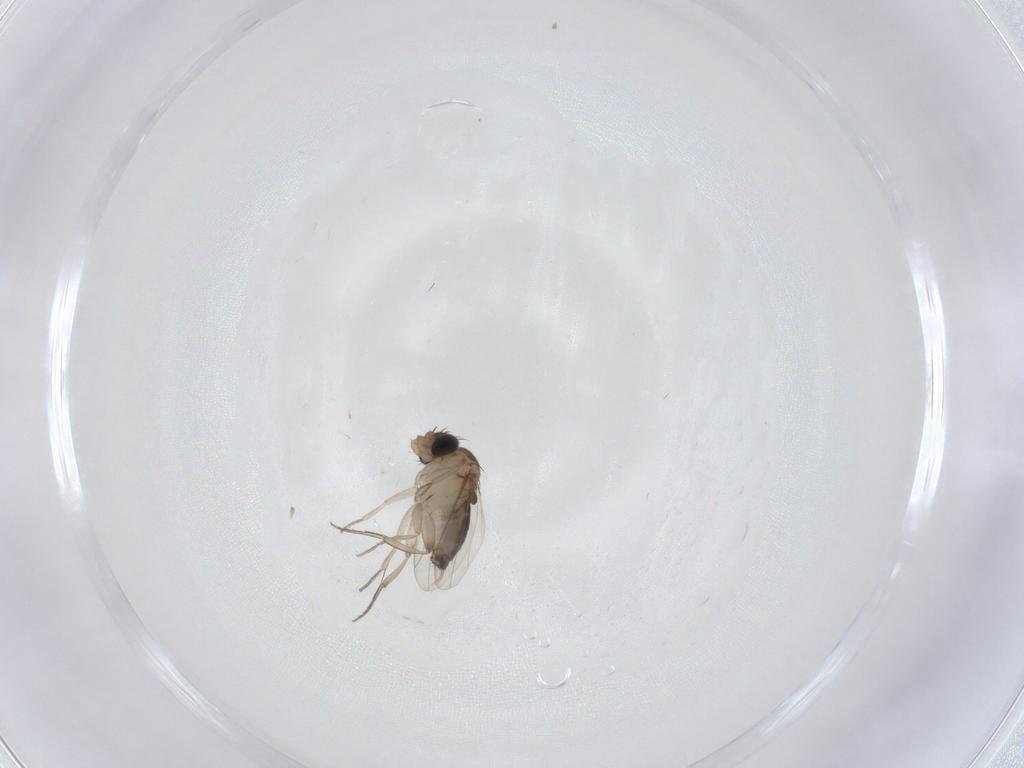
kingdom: Animalia
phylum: Arthropoda
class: Insecta
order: Diptera
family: Phoridae
